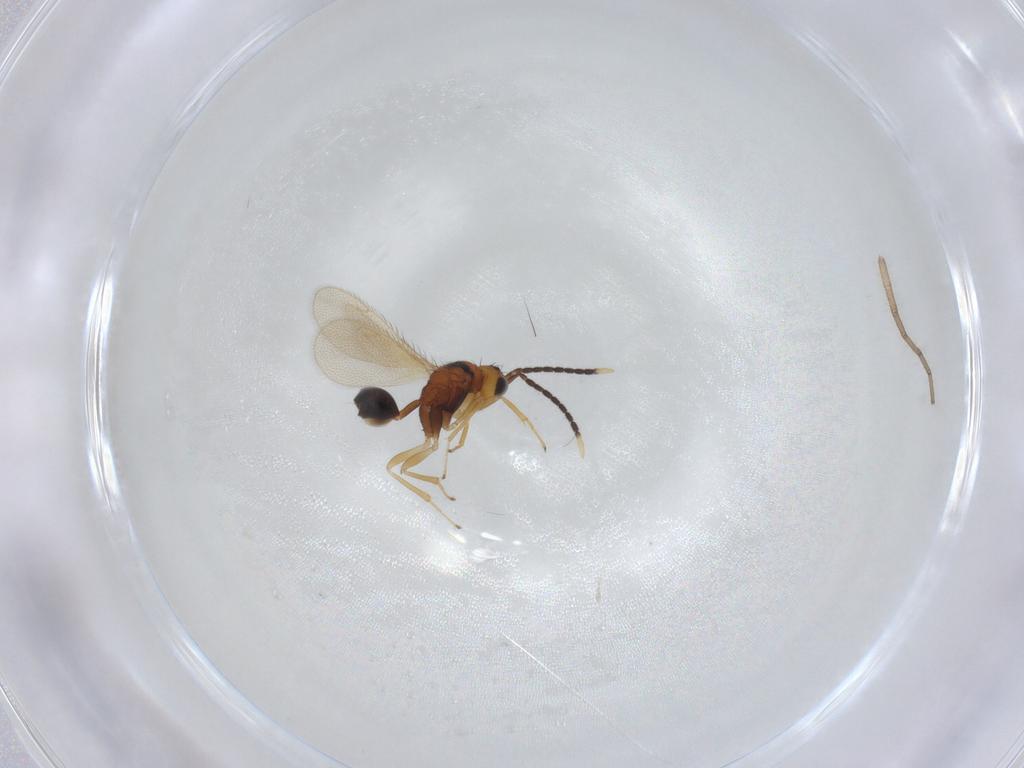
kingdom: Animalia
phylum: Arthropoda
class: Insecta
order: Hymenoptera
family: Diparidae
